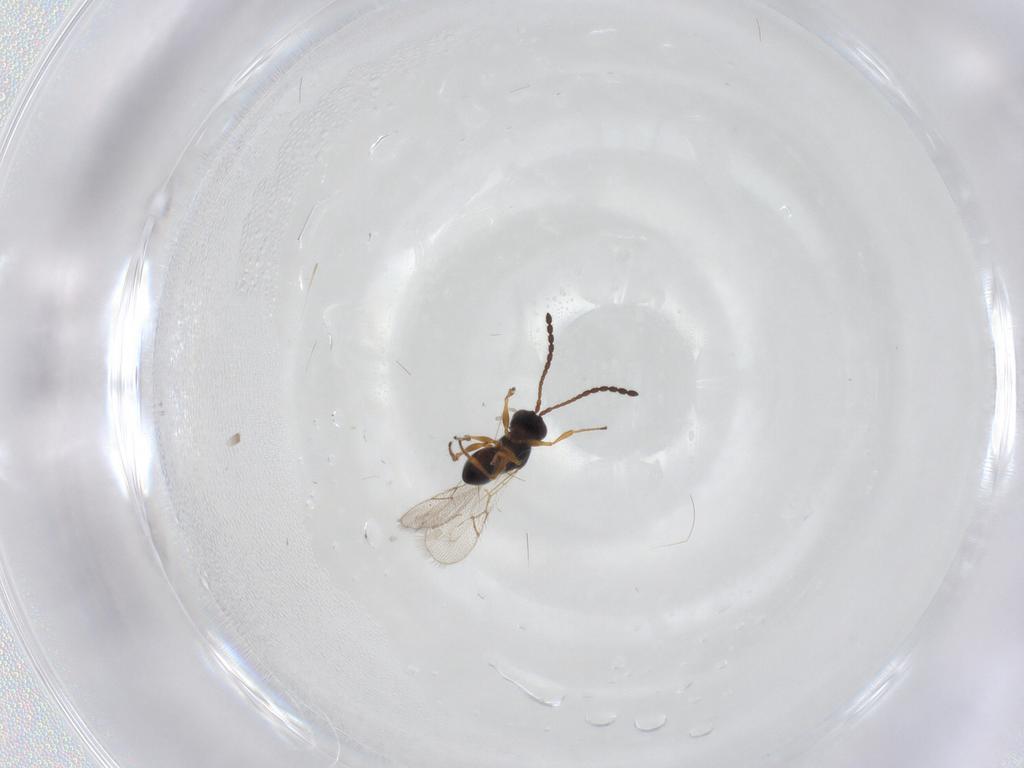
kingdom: Animalia
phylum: Arthropoda
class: Insecta
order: Hymenoptera
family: Figitidae
